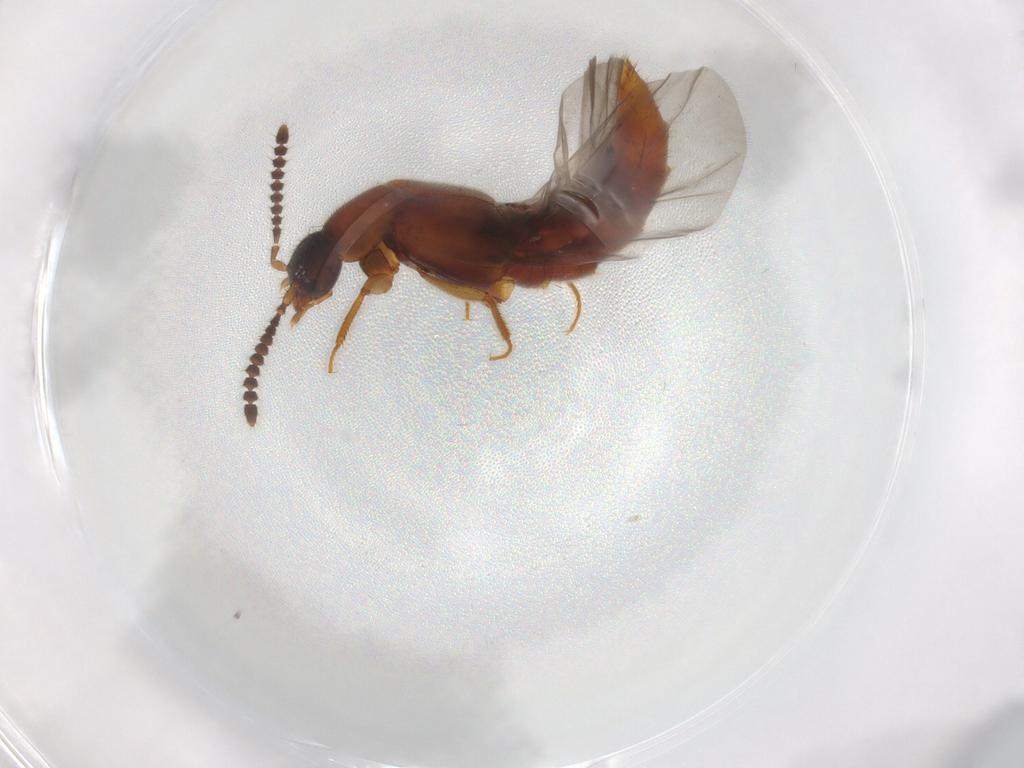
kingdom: Animalia
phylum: Arthropoda
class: Insecta
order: Coleoptera
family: Staphylinidae
